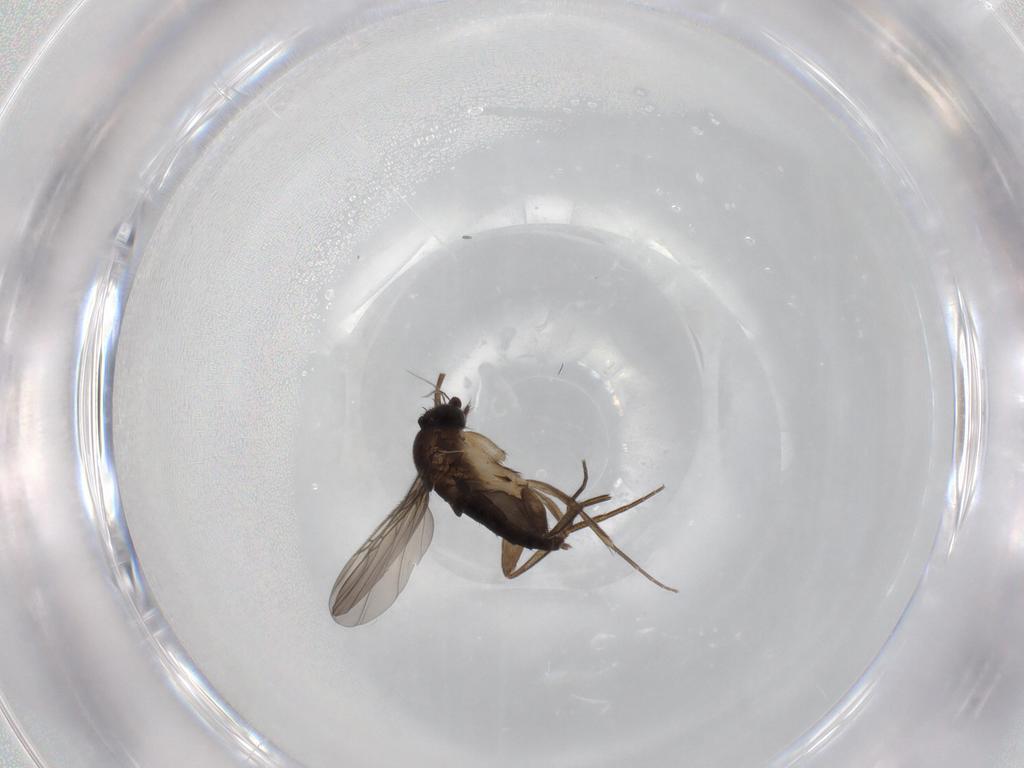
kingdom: Animalia
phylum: Arthropoda
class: Insecta
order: Diptera
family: Phoridae
